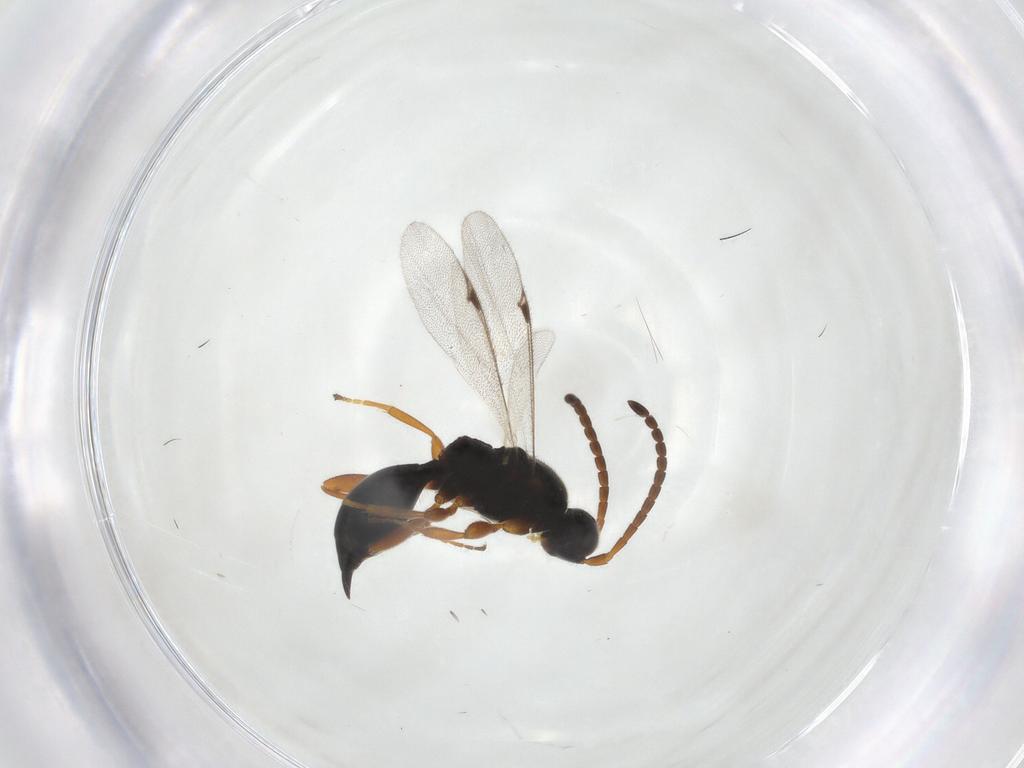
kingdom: Animalia
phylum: Arthropoda
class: Insecta
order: Hymenoptera
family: Proctotrupidae
